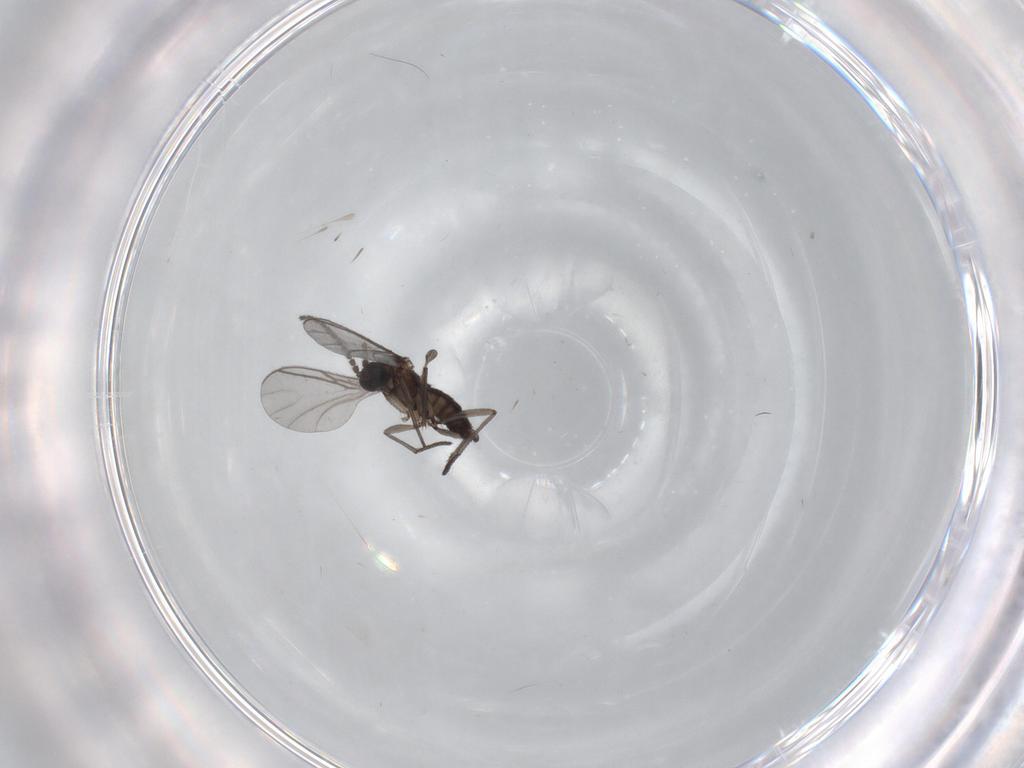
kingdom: Animalia
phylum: Arthropoda
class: Insecta
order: Diptera
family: Sciaridae
